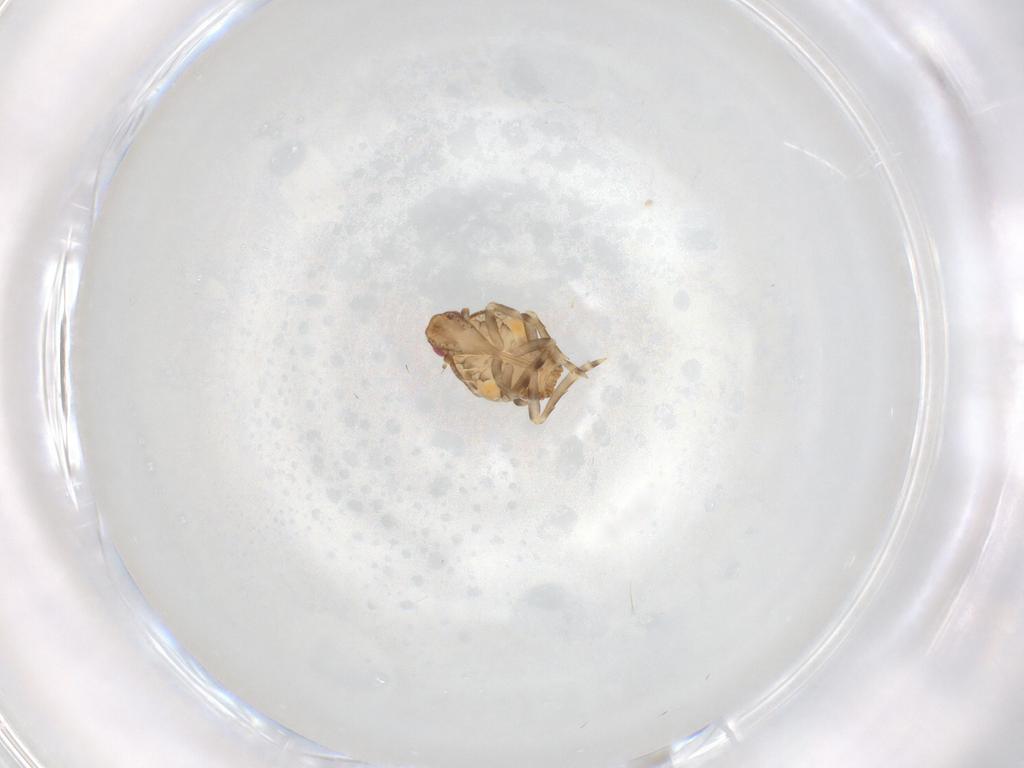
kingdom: Animalia
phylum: Arthropoda
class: Insecta
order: Hemiptera
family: Flatidae
